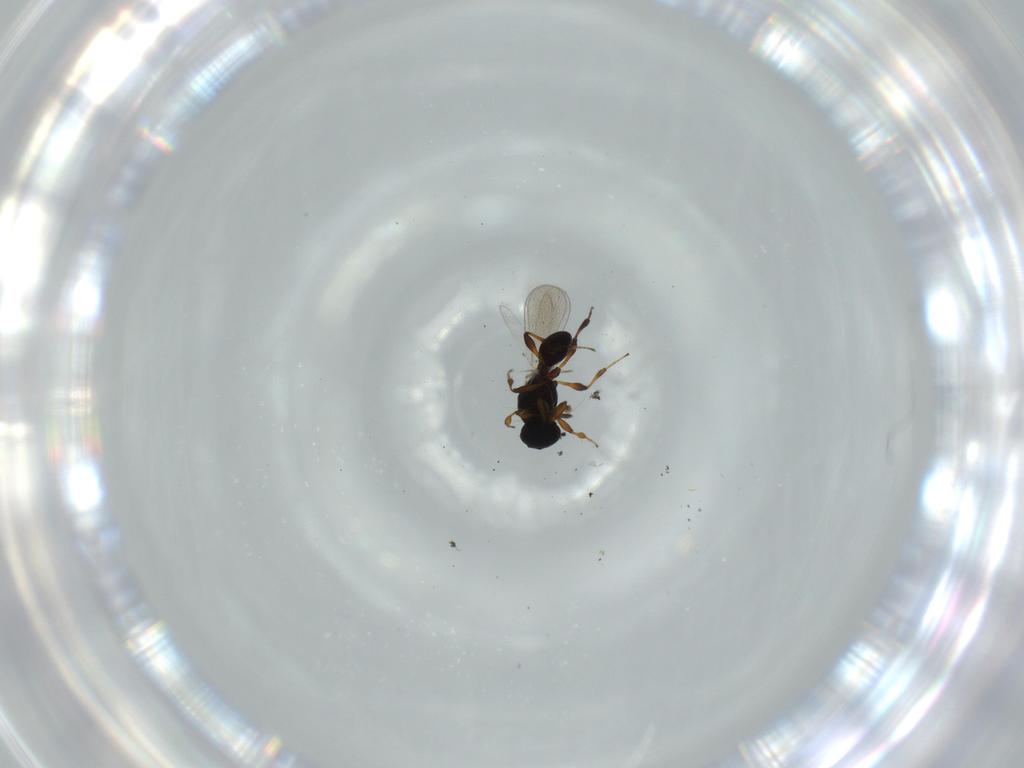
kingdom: Animalia
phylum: Arthropoda
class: Insecta
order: Hymenoptera
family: Platygastridae
